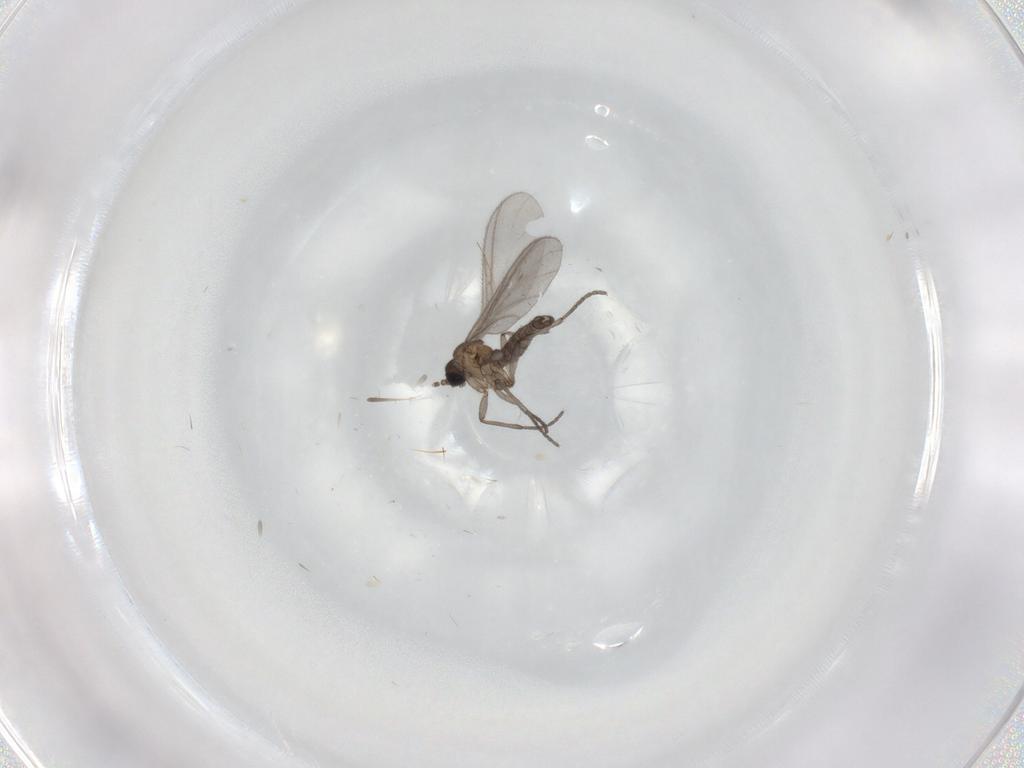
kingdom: Animalia
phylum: Arthropoda
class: Insecta
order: Diptera
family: Sciaridae
